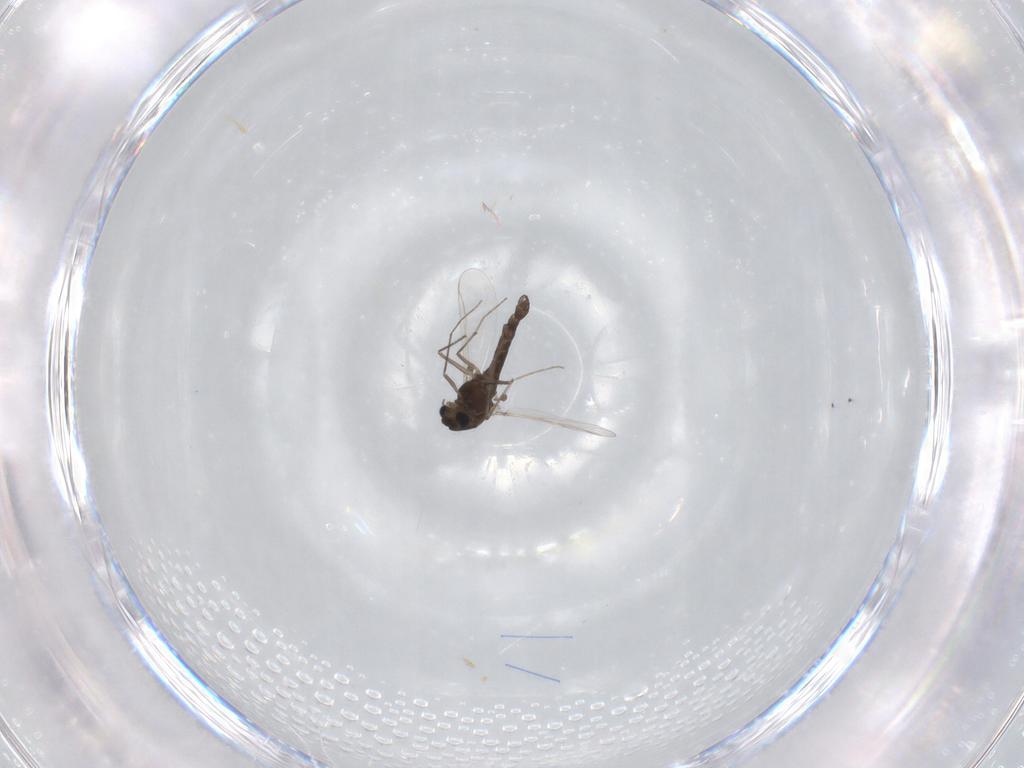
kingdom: Animalia
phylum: Arthropoda
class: Insecta
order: Diptera
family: Chironomidae
